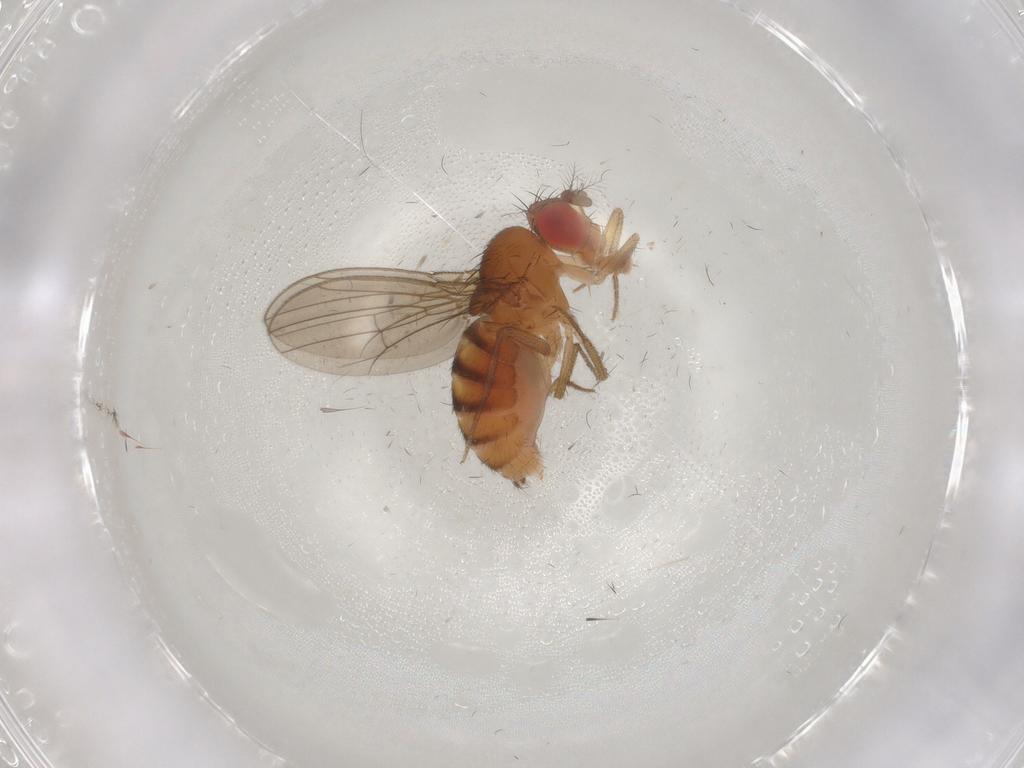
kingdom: Animalia
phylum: Arthropoda
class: Insecta
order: Diptera
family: Drosophilidae
